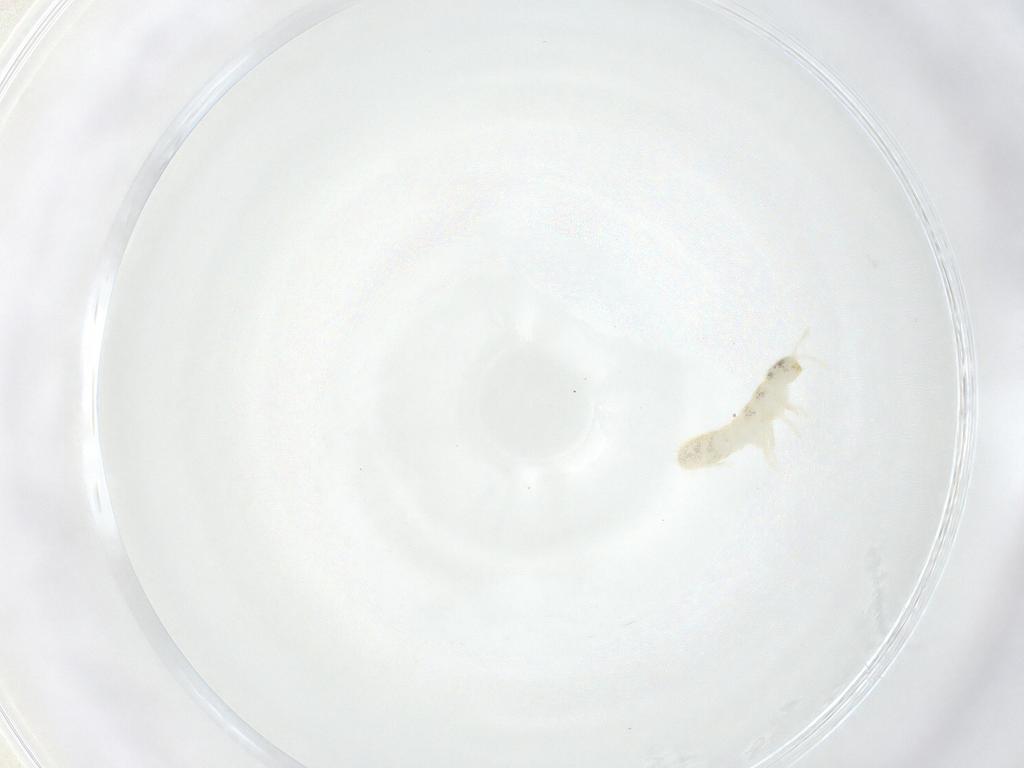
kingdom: Animalia
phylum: Arthropoda
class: Collembola
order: Entomobryomorpha
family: Isotomidae
